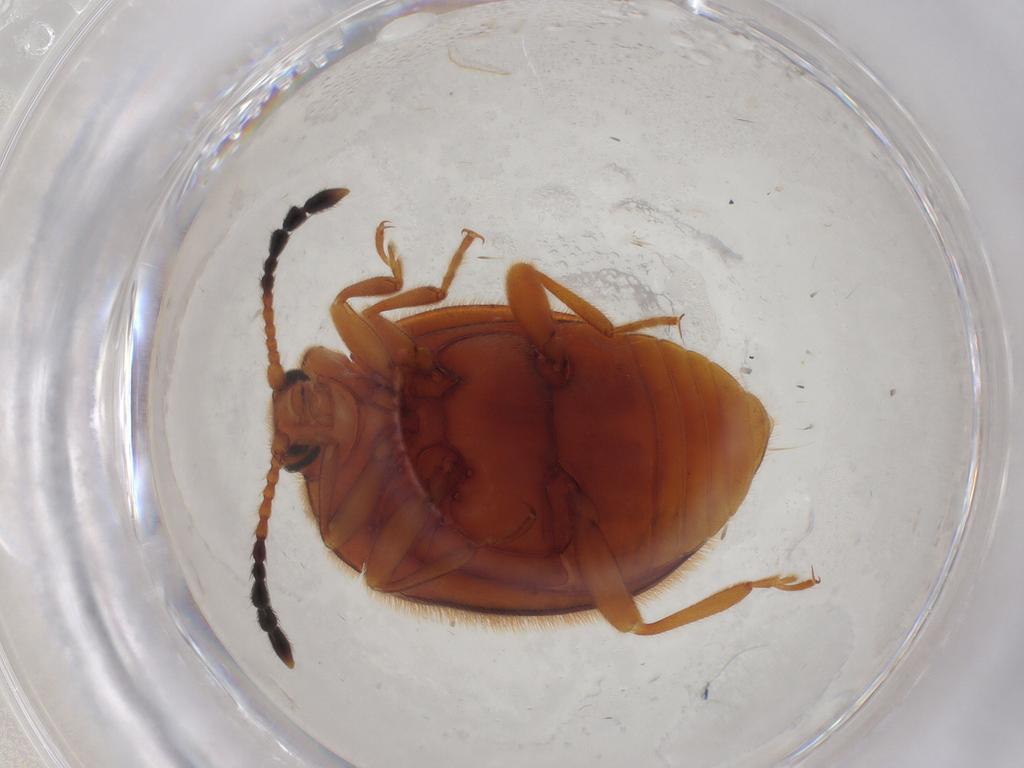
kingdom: Animalia
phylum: Arthropoda
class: Insecta
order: Coleoptera
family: Endomychidae
